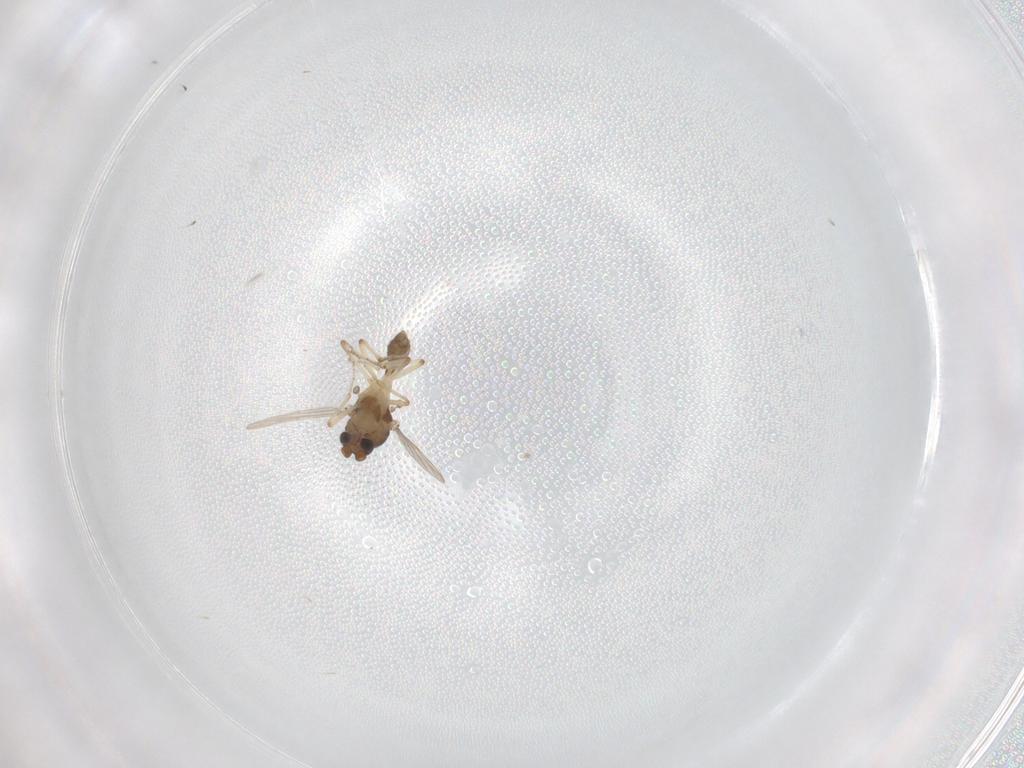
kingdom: Animalia
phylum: Arthropoda
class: Insecta
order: Diptera
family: Ceratopogonidae
